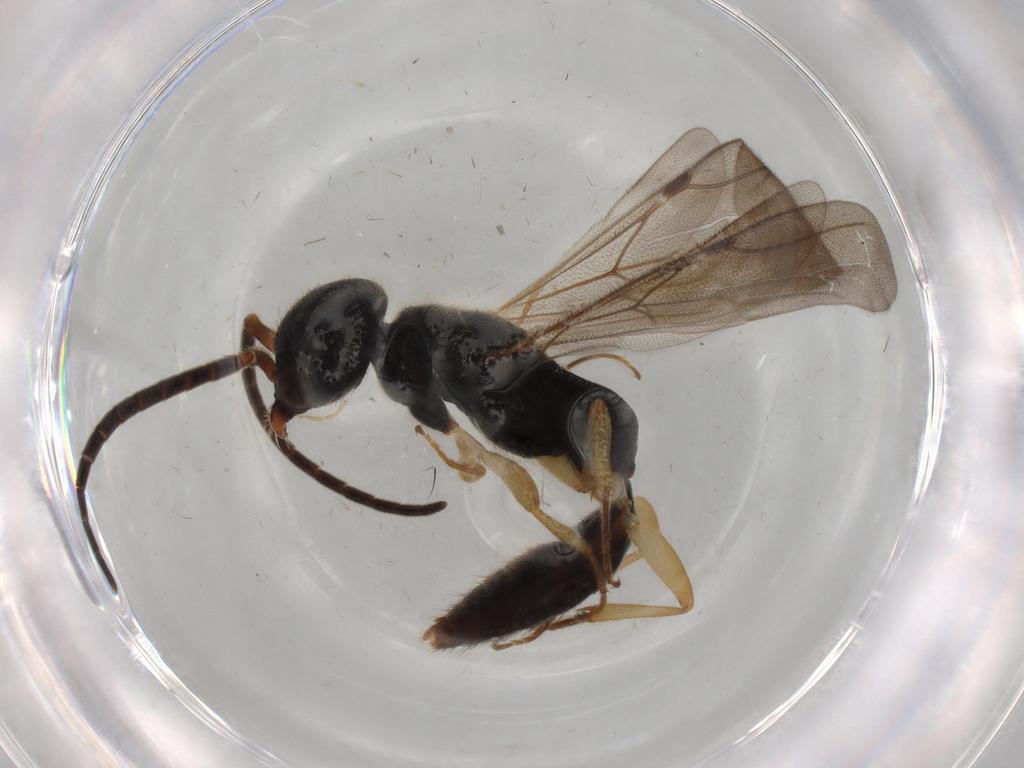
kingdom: Animalia
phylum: Arthropoda
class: Insecta
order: Hymenoptera
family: Bethylidae
